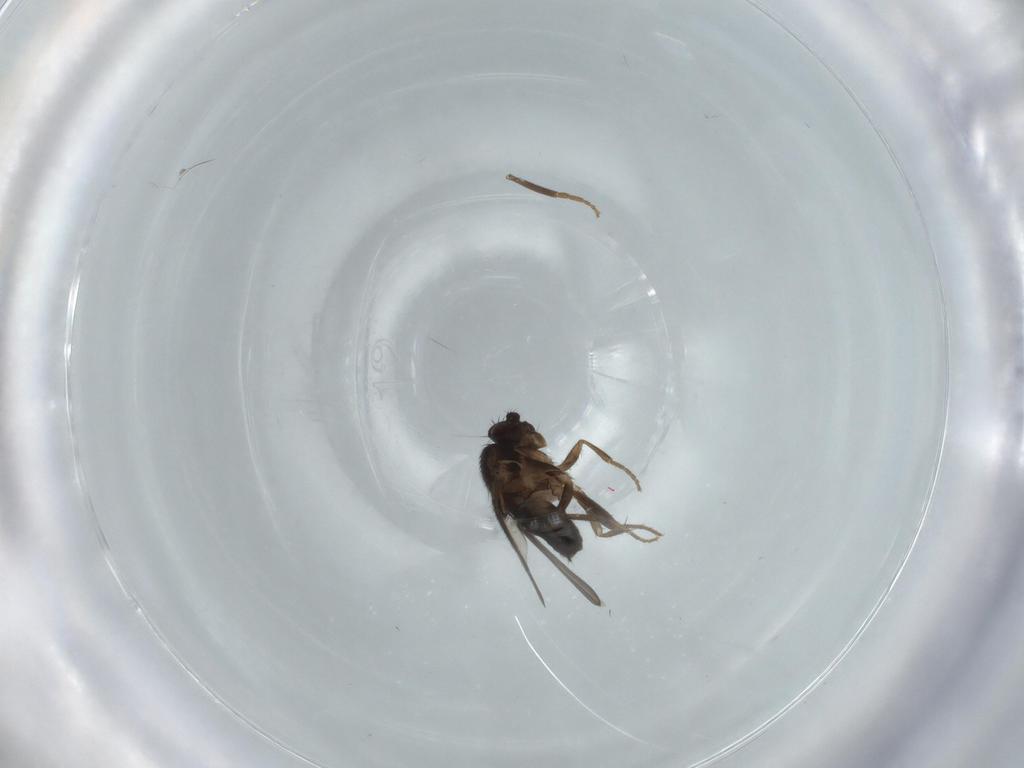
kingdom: Animalia
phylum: Arthropoda
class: Insecta
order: Diptera
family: Sphaeroceridae
